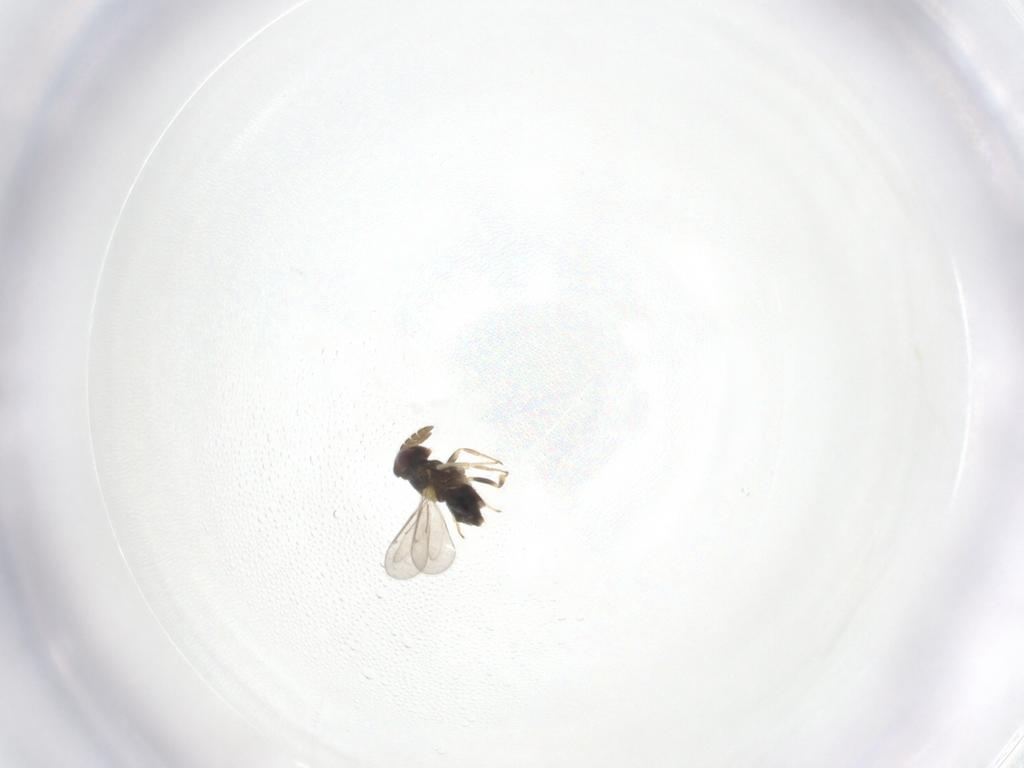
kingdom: Animalia
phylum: Arthropoda
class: Insecta
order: Hymenoptera
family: Aphelinidae
